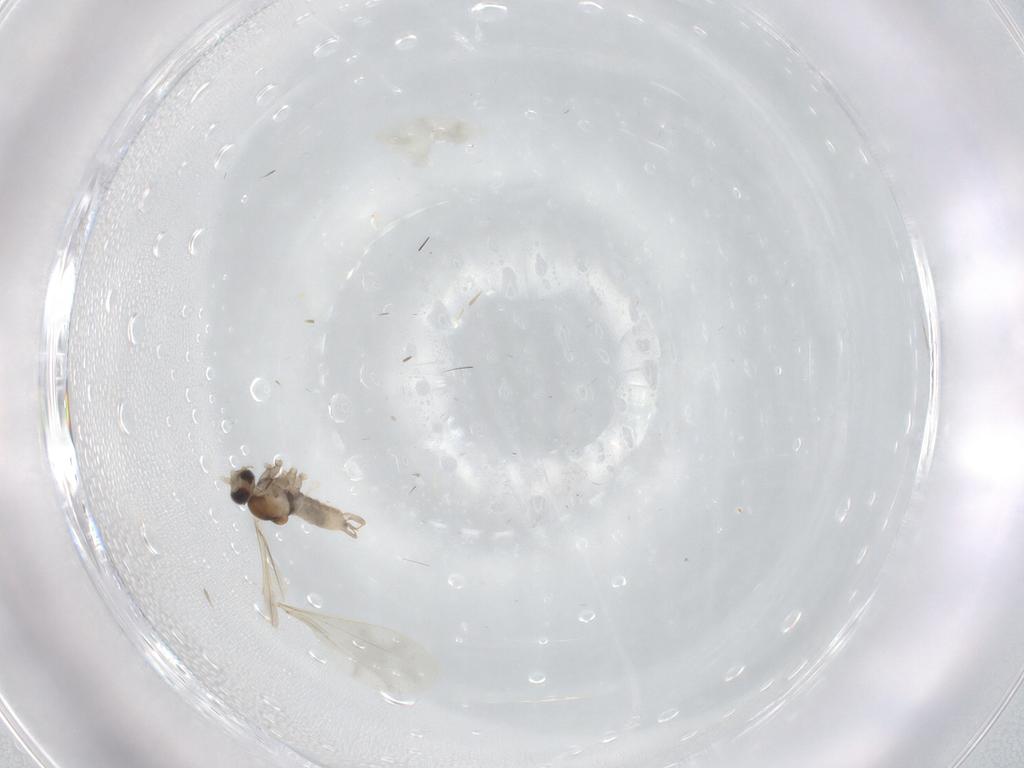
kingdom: Animalia
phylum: Arthropoda
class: Insecta
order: Diptera
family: Cecidomyiidae
